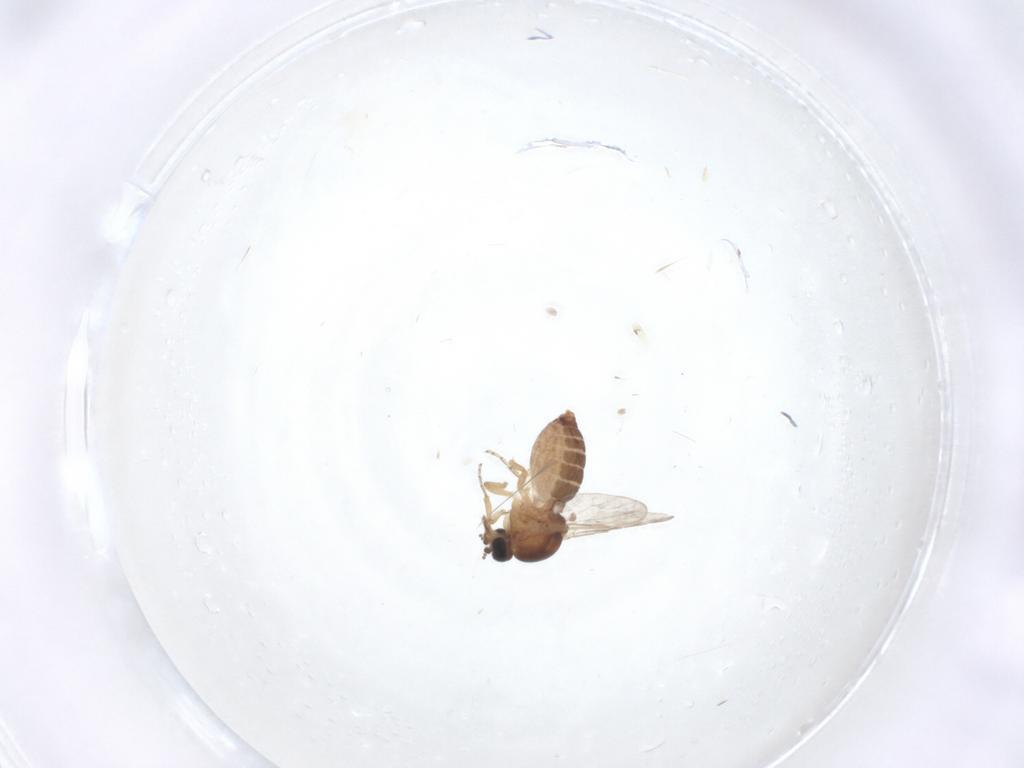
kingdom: Animalia
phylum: Arthropoda
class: Insecta
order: Diptera
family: Ceratopogonidae
